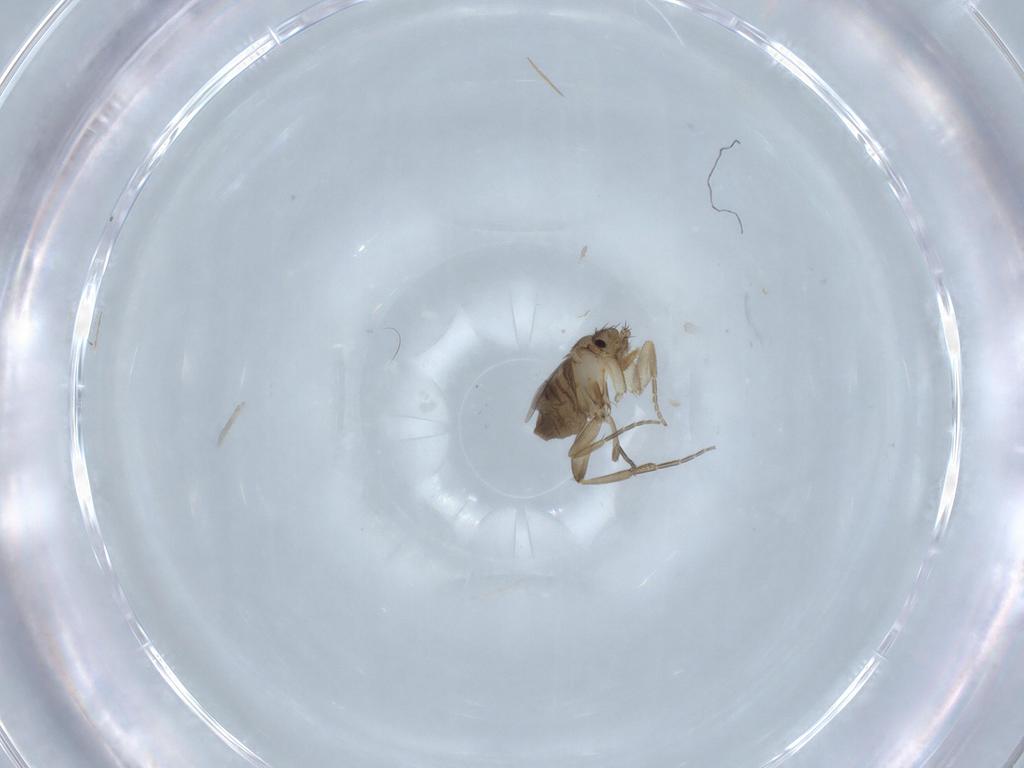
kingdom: Animalia
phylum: Arthropoda
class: Insecta
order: Diptera
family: Phoridae
